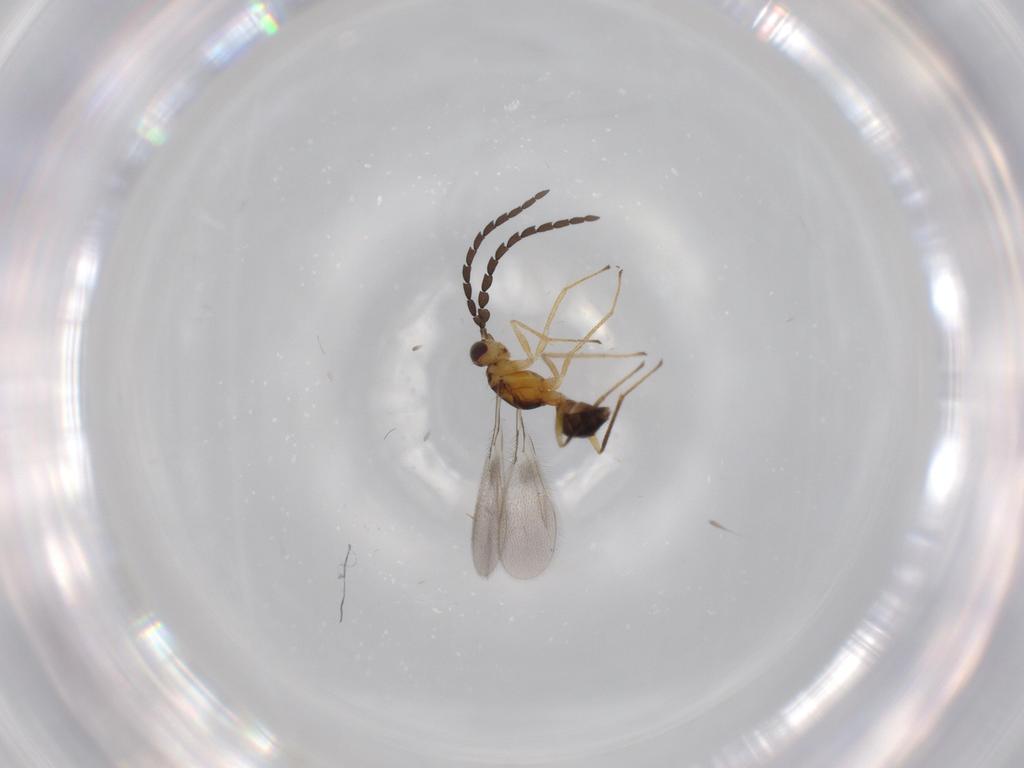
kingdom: Animalia
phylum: Arthropoda
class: Insecta
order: Hymenoptera
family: Mymaridae
